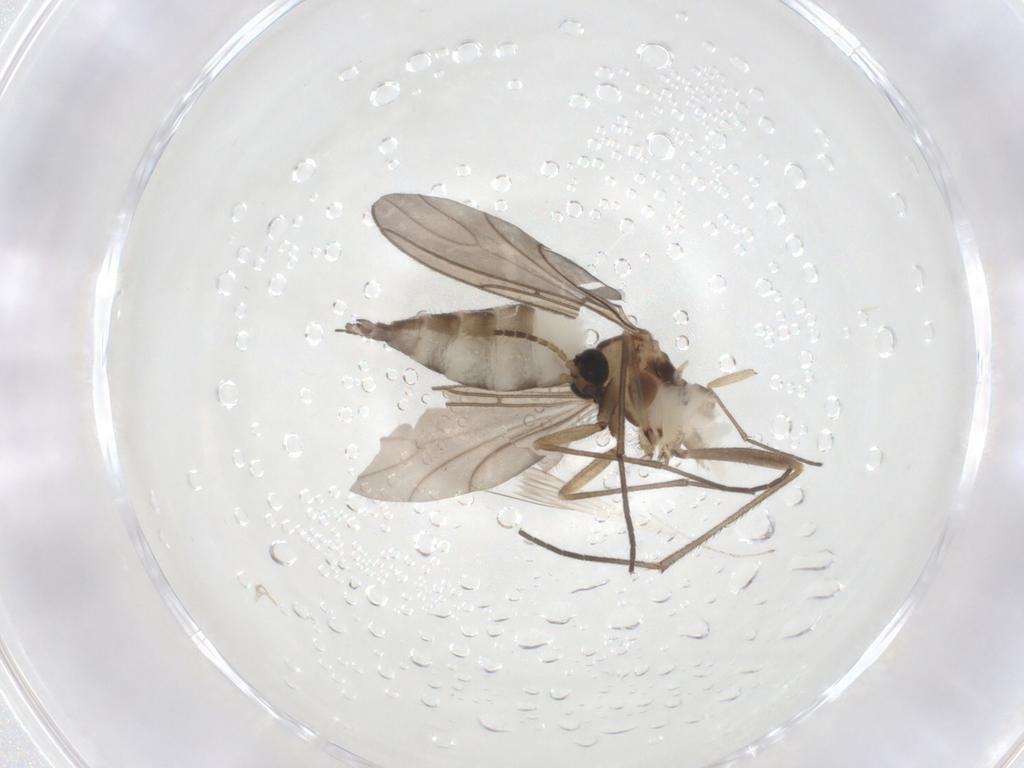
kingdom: Animalia
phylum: Arthropoda
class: Insecta
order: Diptera
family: Sciaridae
